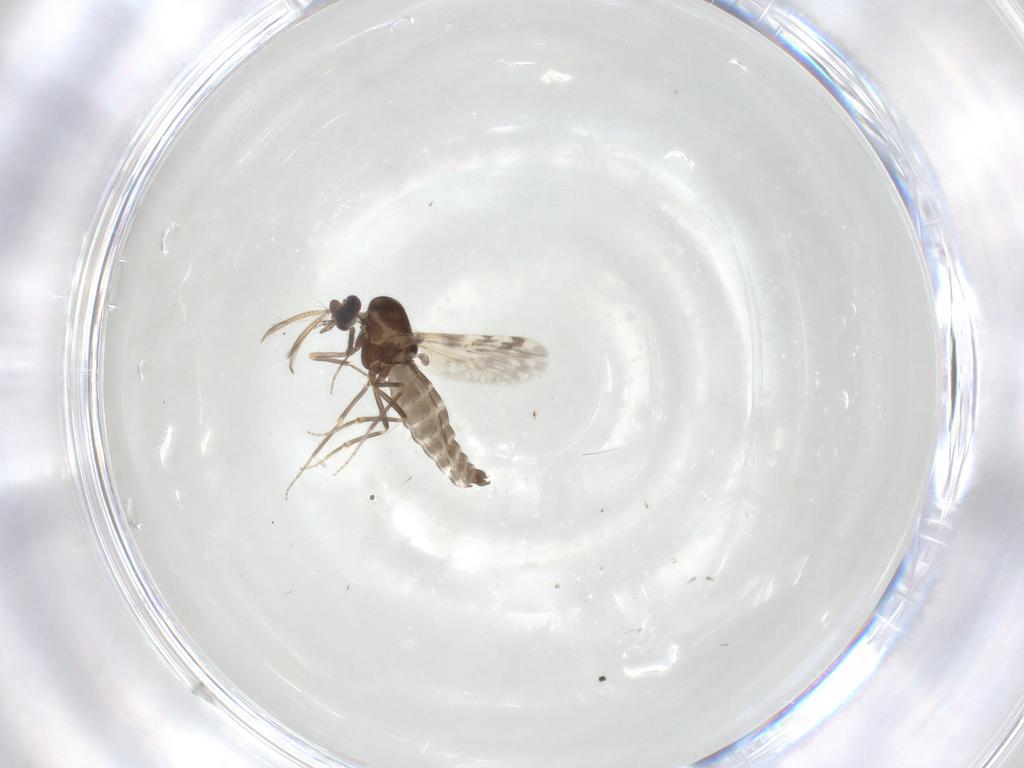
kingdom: Animalia
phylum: Arthropoda
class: Insecta
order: Diptera
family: Ceratopogonidae
